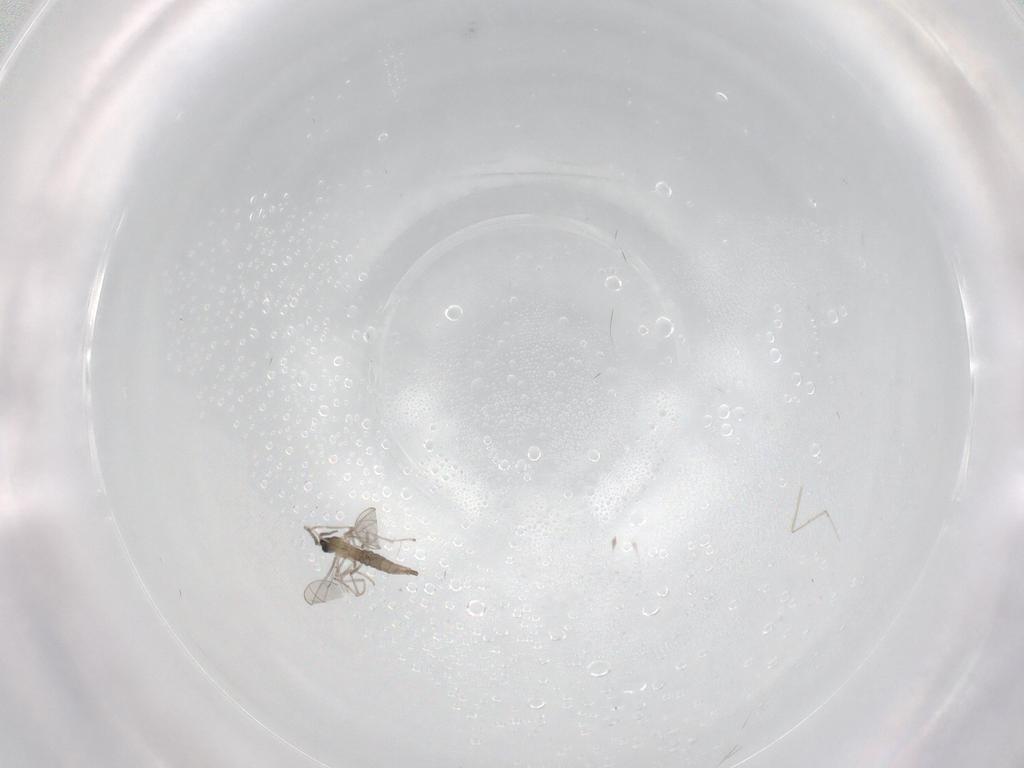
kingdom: Animalia
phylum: Arthropoda
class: Insecta
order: Diptera
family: Cecidomyiidae
